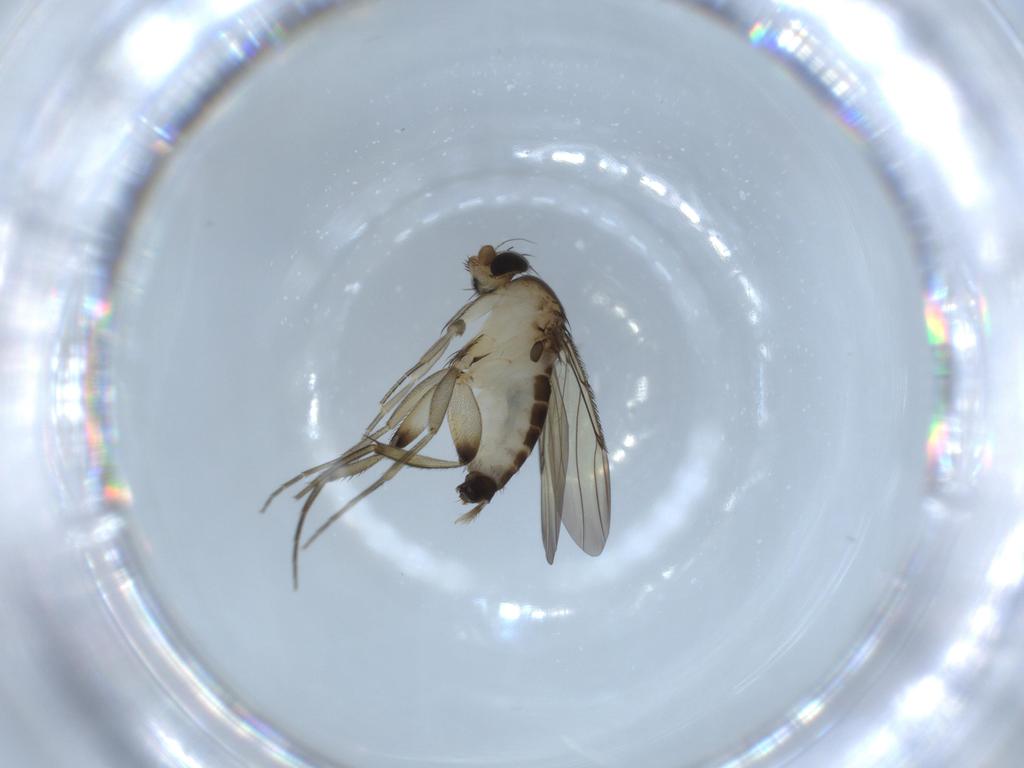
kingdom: Animalia
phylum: Arthropoda
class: Insecta
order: Diptera
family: Phoridae
